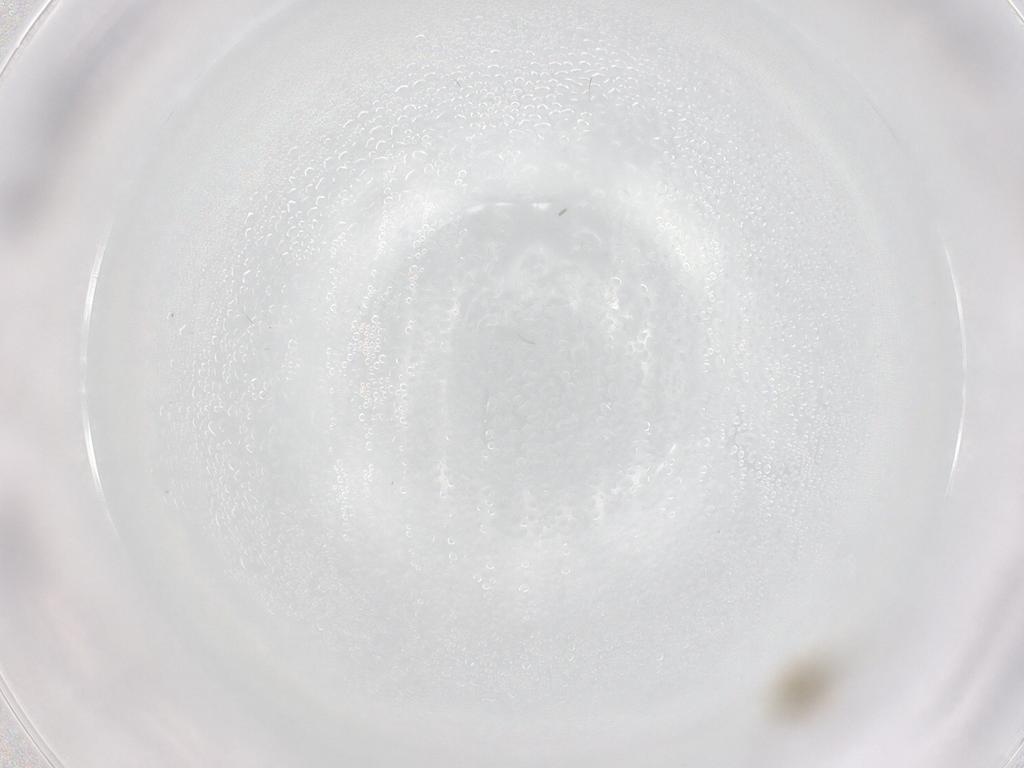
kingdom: Animalia
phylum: Arthropoda
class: Insecta
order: Diptera
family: Ceratopogonidae
